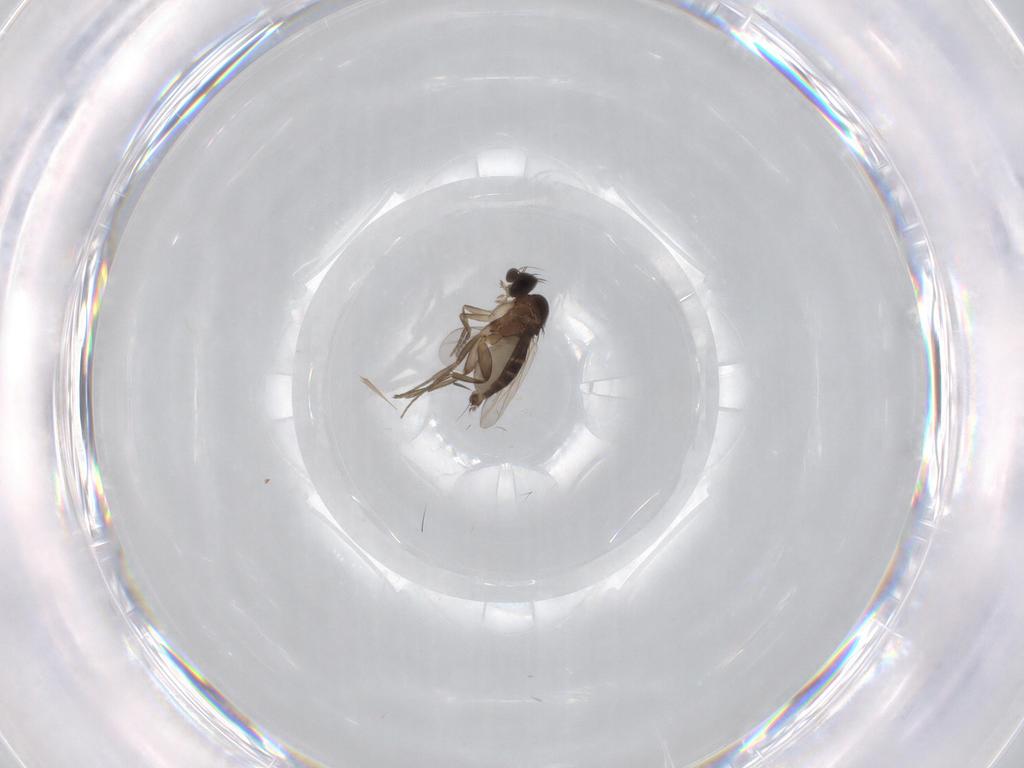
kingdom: Animalia
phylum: Arthropoda
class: Insecta
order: Diptera
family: Phoridae
